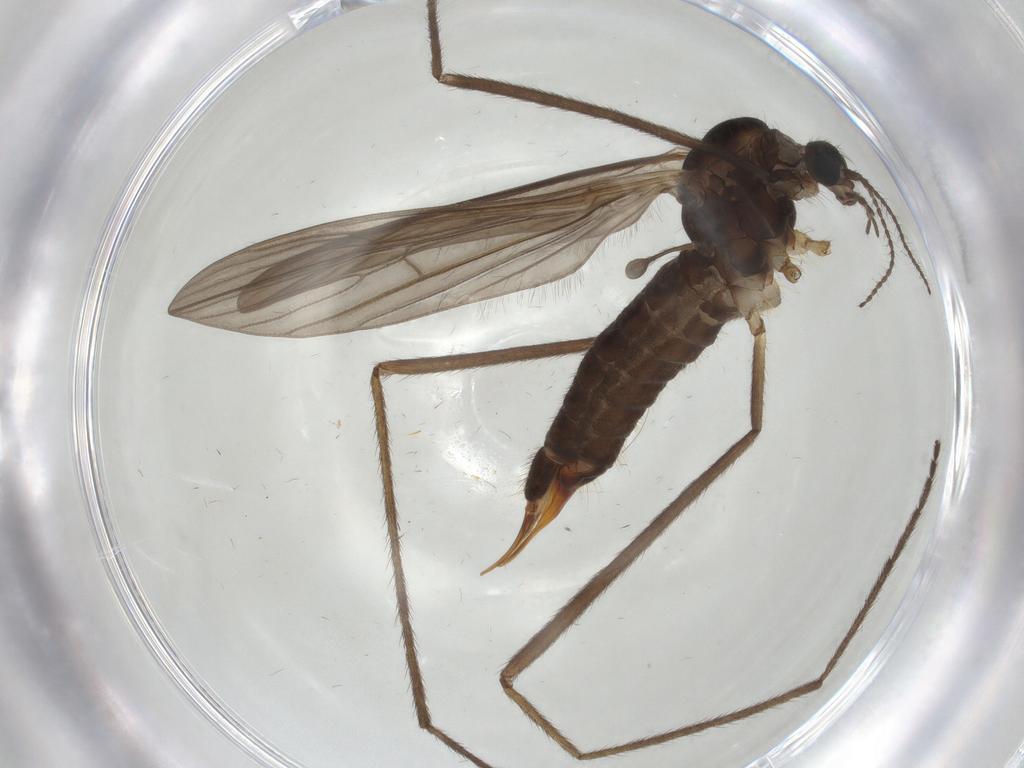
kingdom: Animalia
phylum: Arthropoda
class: Insecta
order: Diptera
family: Limoniidae
